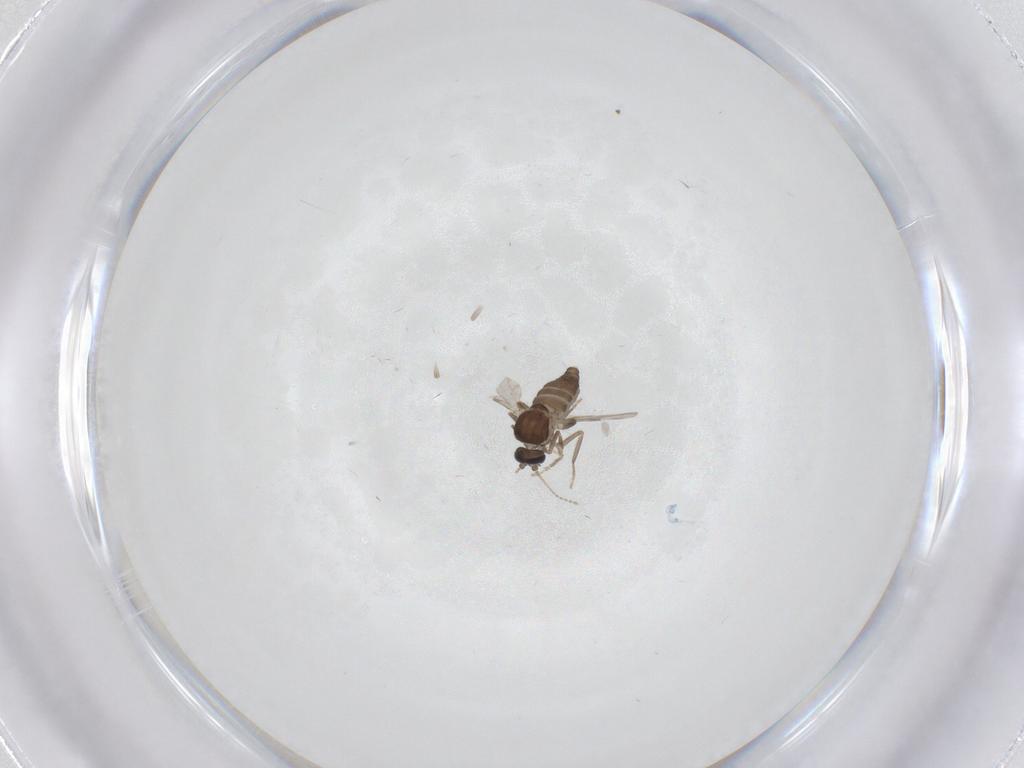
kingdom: Animalia
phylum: Arthropoda
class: Insecta
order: Diptera
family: Ceratopogonidae
